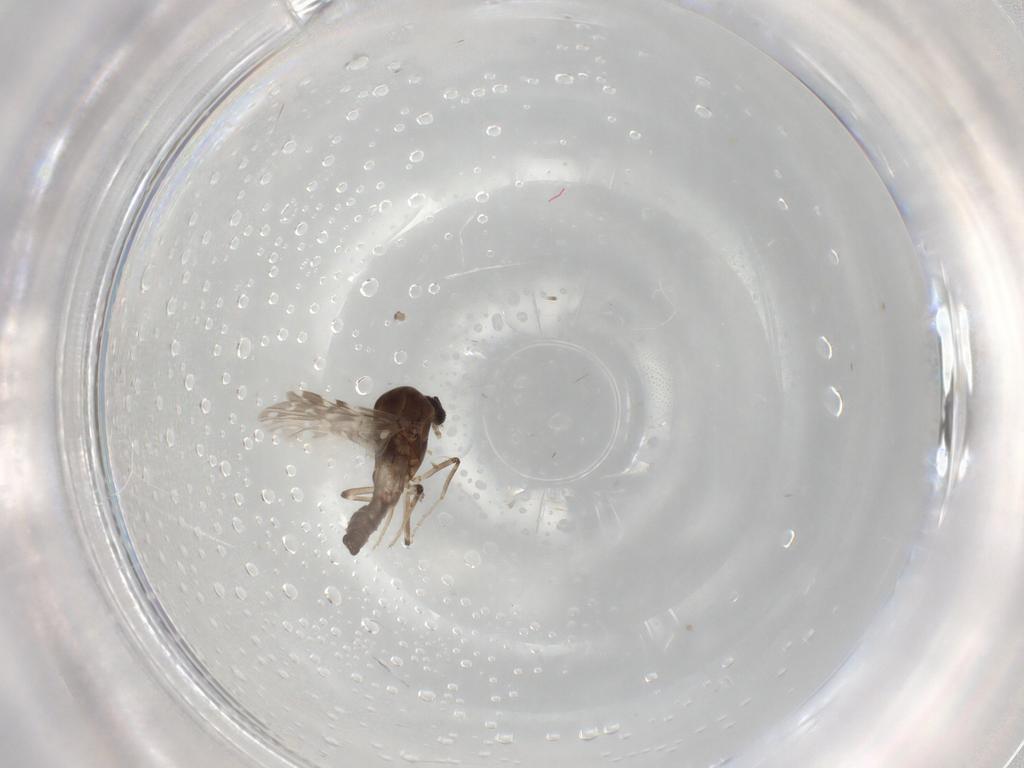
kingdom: Animalia
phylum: Arthropoda
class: Insecta
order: Diptera
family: Ceratopogonidae
